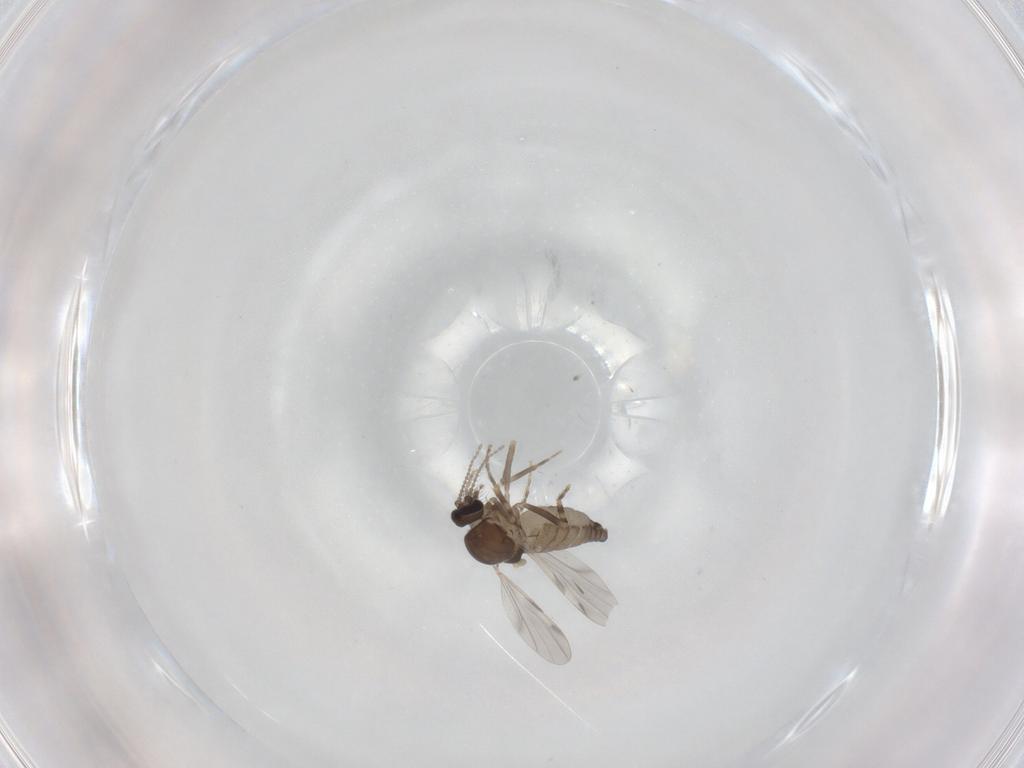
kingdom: Animalia
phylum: Arthropoda
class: Insecta
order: Diptera
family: Ceratopogonidae
